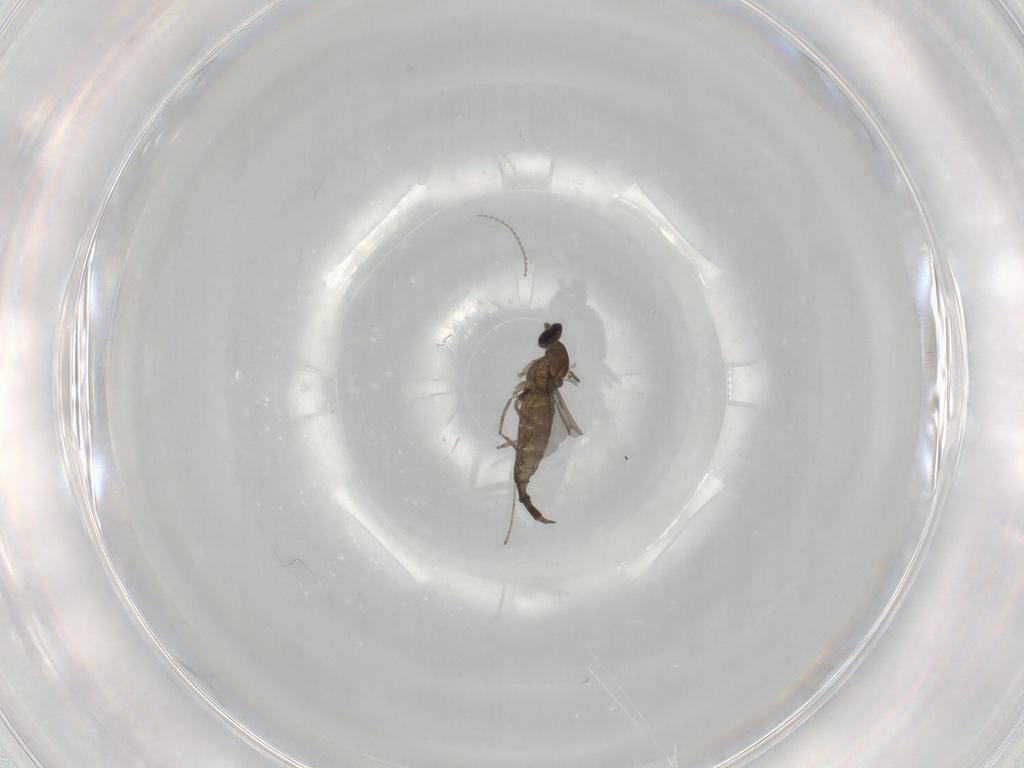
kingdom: Animalia
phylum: Arthropoda
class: Insecta
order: Diptera
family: Cecidomyiidae
